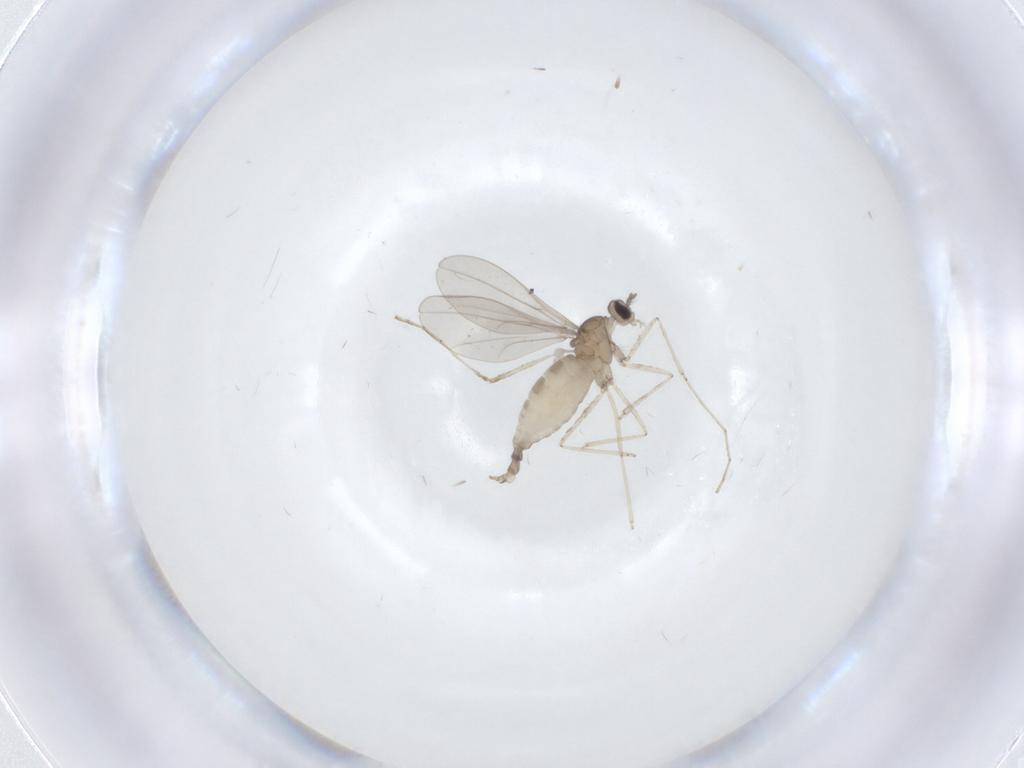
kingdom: Animalia
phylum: Arthropoda
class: Insecta
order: Diptera
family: Cecidomyiidae
